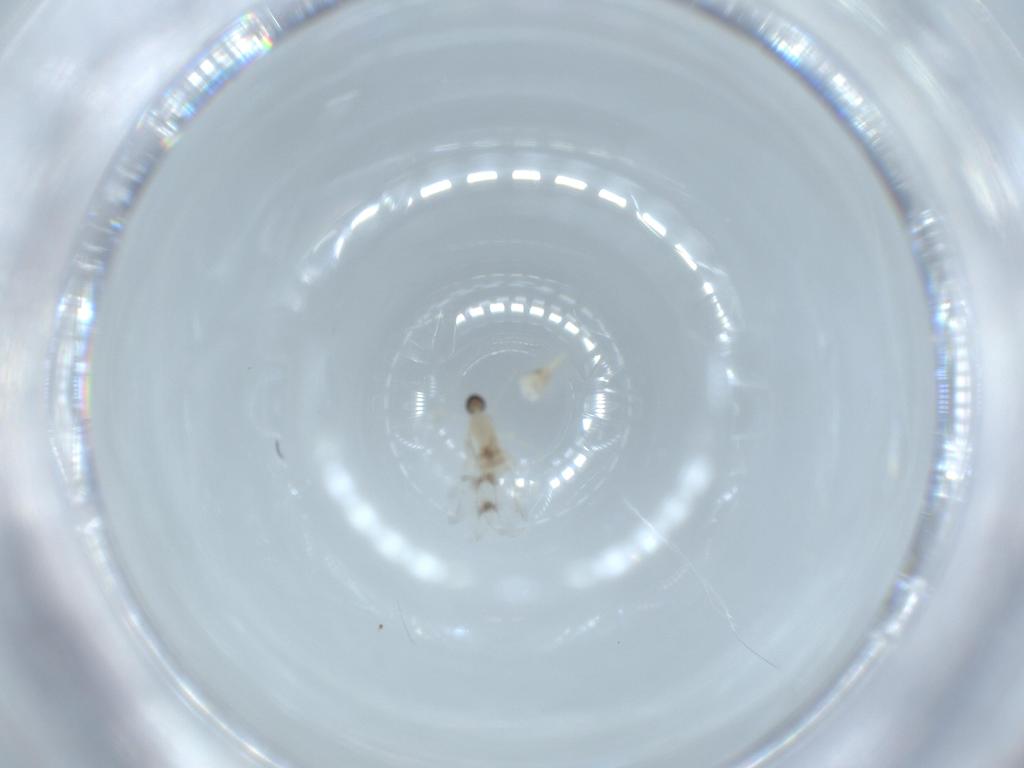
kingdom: Animalia
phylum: Arthropoda
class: Insecta
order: Diptera
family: Cecidomyiidae
